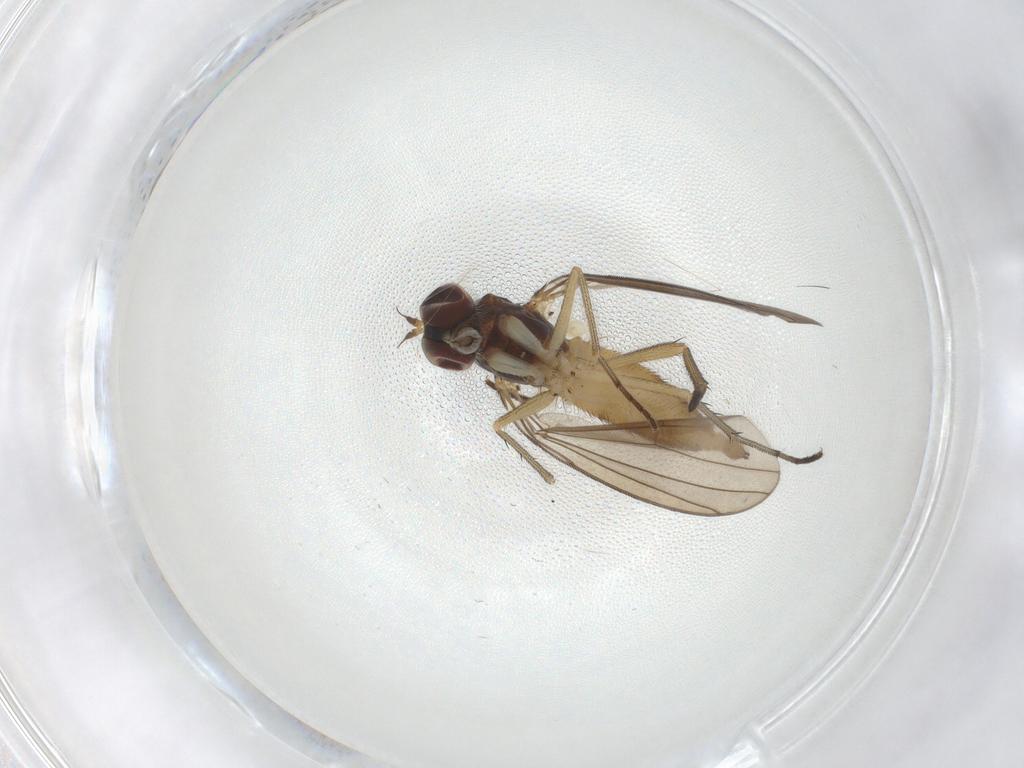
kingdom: Animalia
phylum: Arthropoda
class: Insecta
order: Diptera
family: Dolichopodidae
